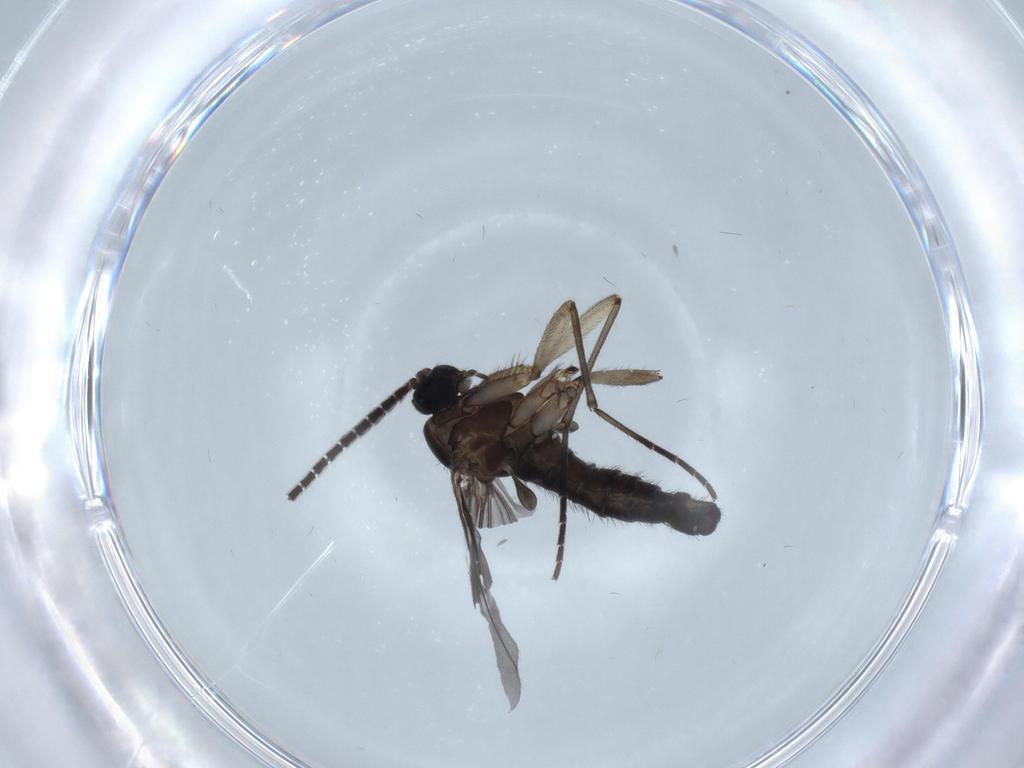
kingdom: Animalia
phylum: Arthropoda
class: Insecta
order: Diptera
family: Sciaridae
